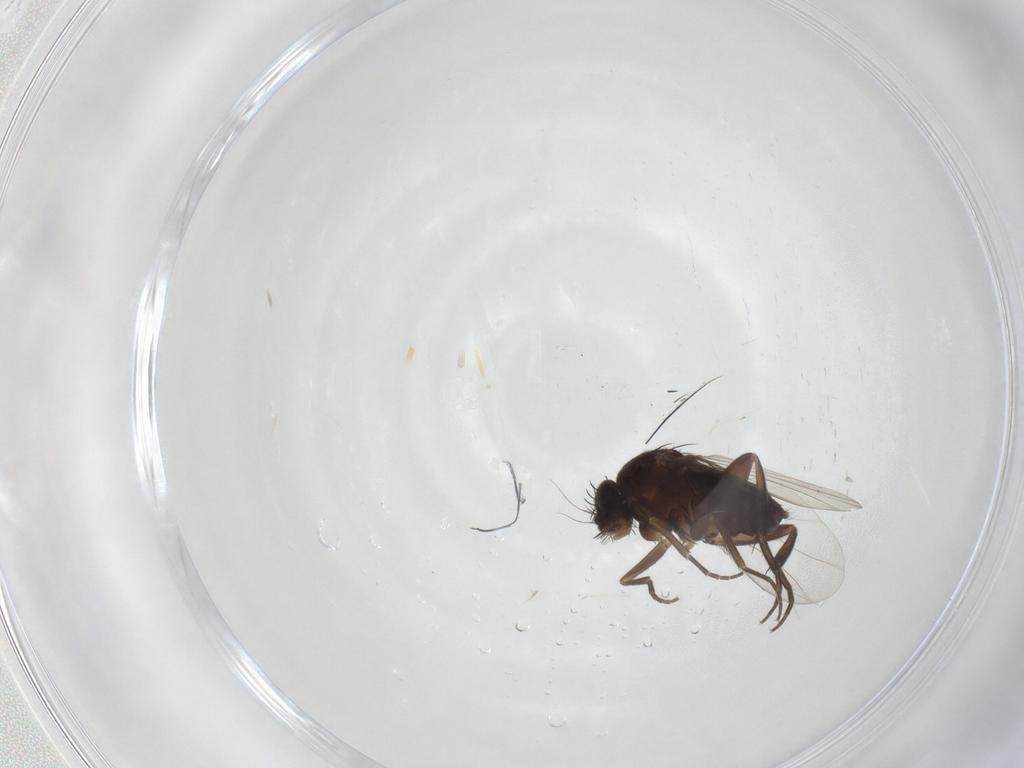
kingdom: Animalia
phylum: Arthropoda
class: Insecta
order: Diptera
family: Phoridae
